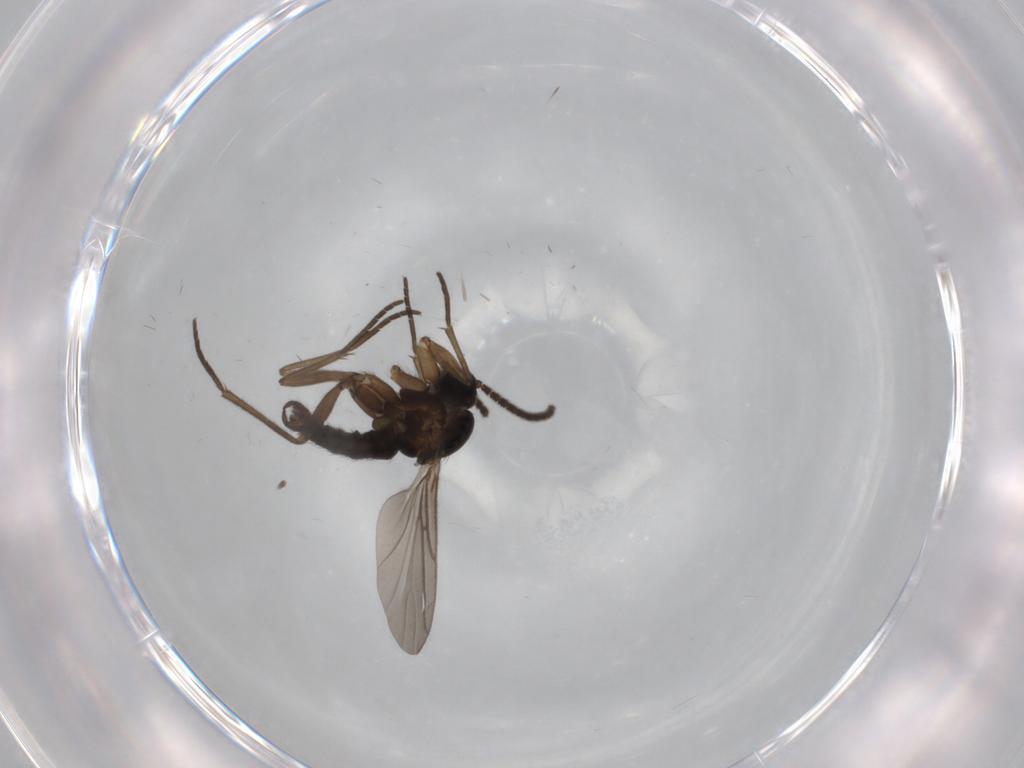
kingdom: Animalia
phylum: Arthropoda
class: Insecta
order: Diptera
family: Sciaridae
